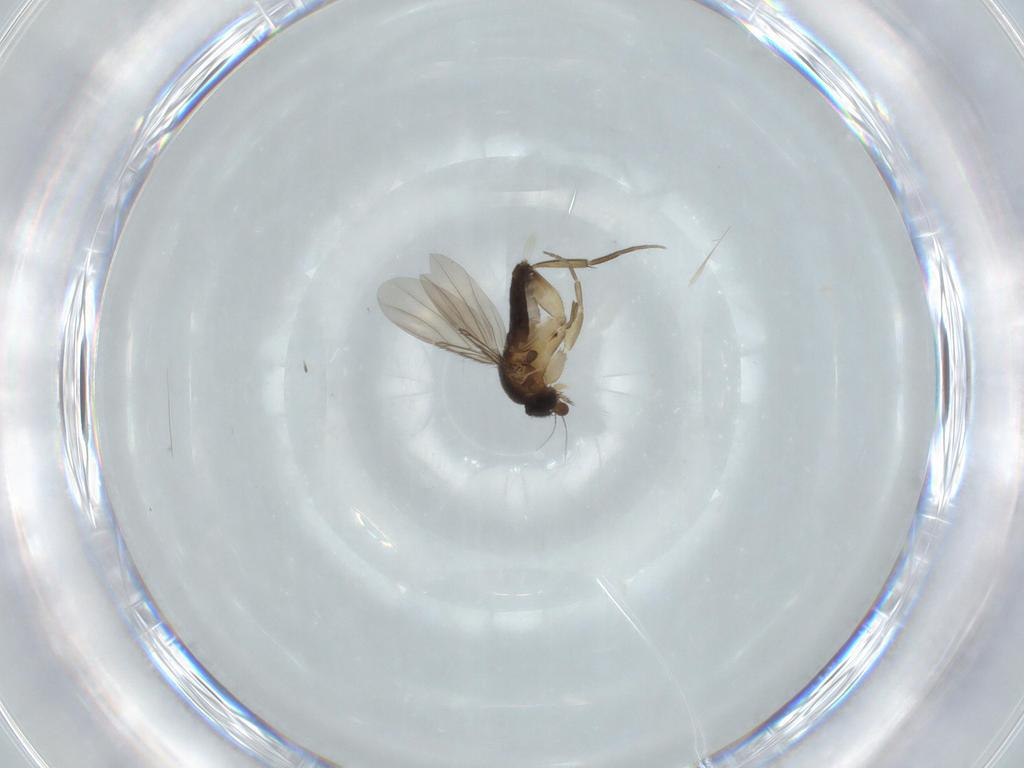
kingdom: Animalia
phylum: Arthropoda
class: Insecta
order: Diptera
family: Phoridae
